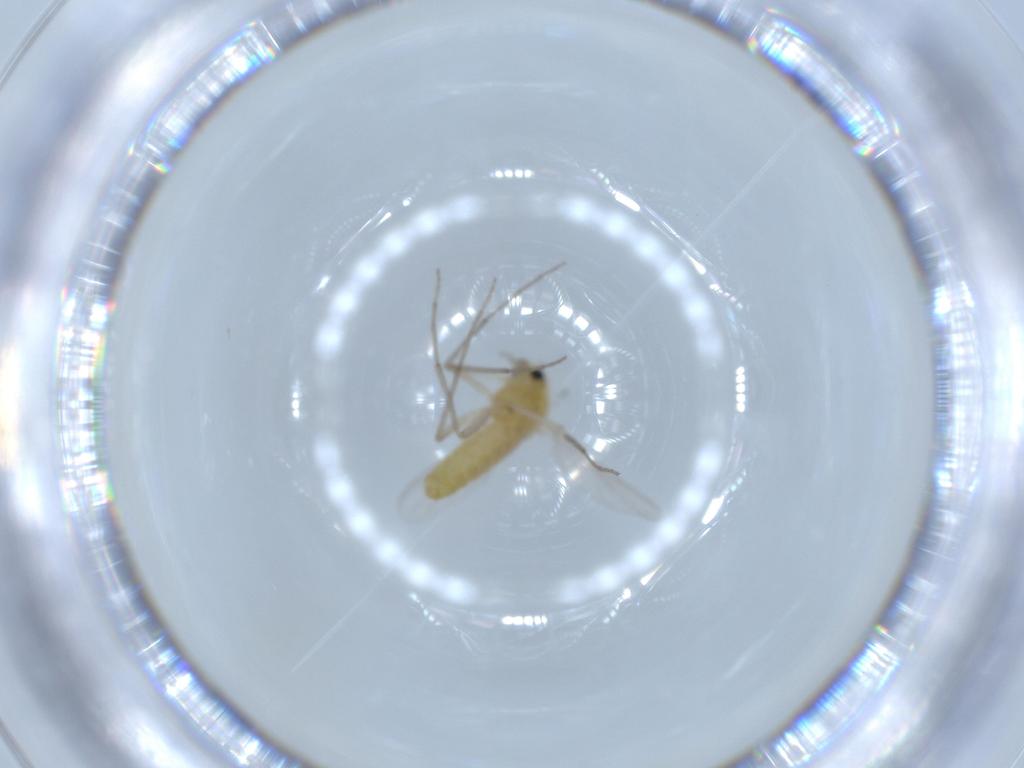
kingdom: Animalia
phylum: Arthropoda
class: Insecta
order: Diptera
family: Chironomidae
